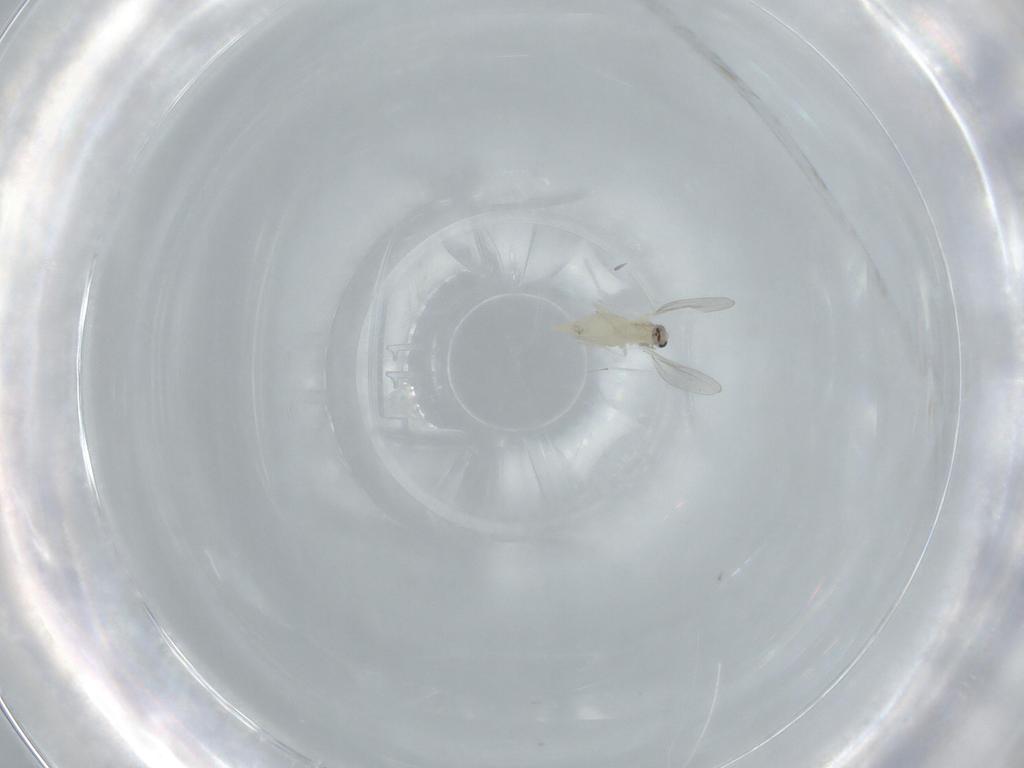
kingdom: Animalia
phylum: Arthropoda
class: Insecta
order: Diptera
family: Cecidomyiidae
